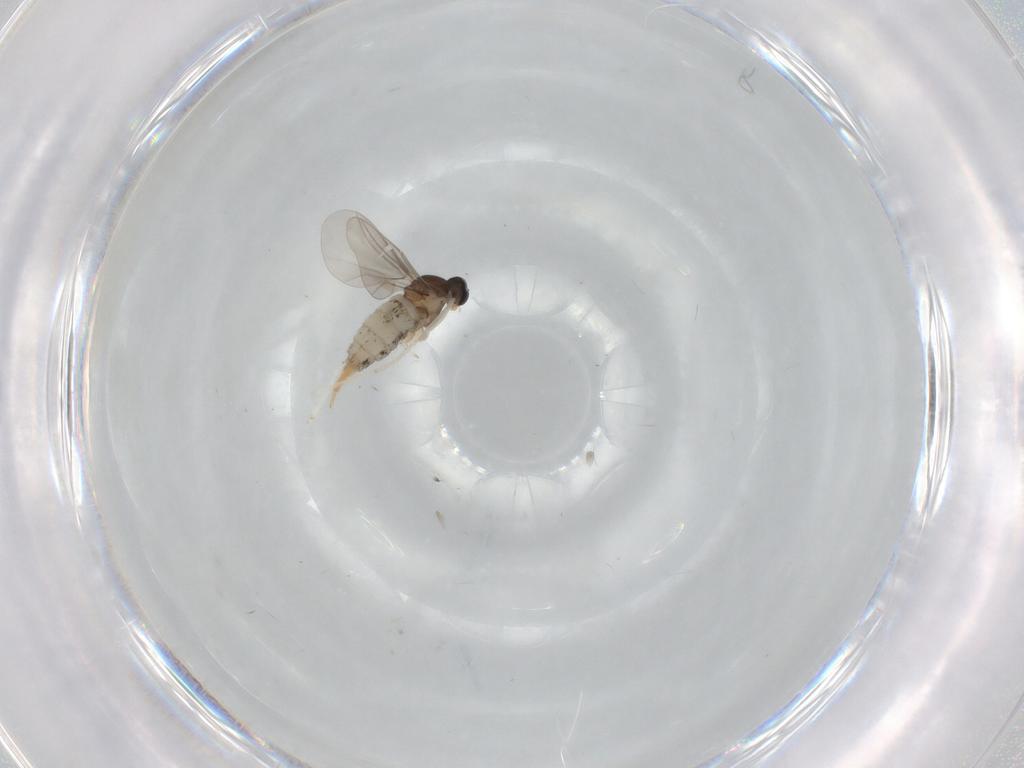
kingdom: Animalia
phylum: Arthropoda
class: Insecta
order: Diptera
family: Cecidomyiidae
